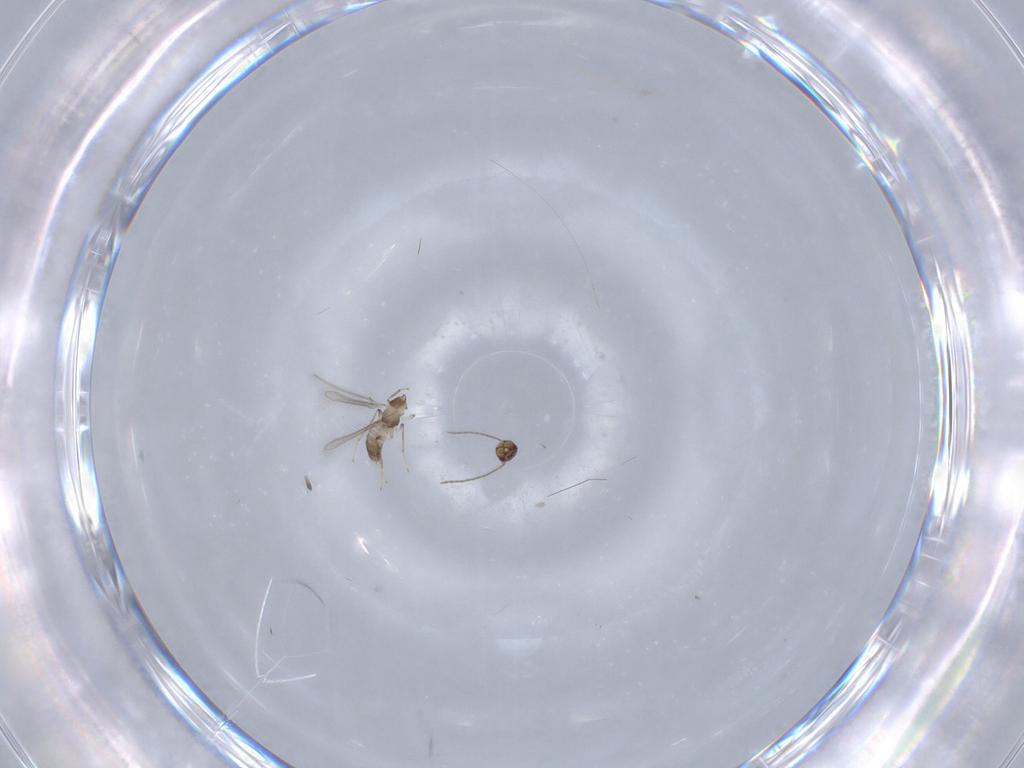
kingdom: Animalia
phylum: Arthropoda
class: Insecta
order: Hymenoptera
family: Mymaridae
